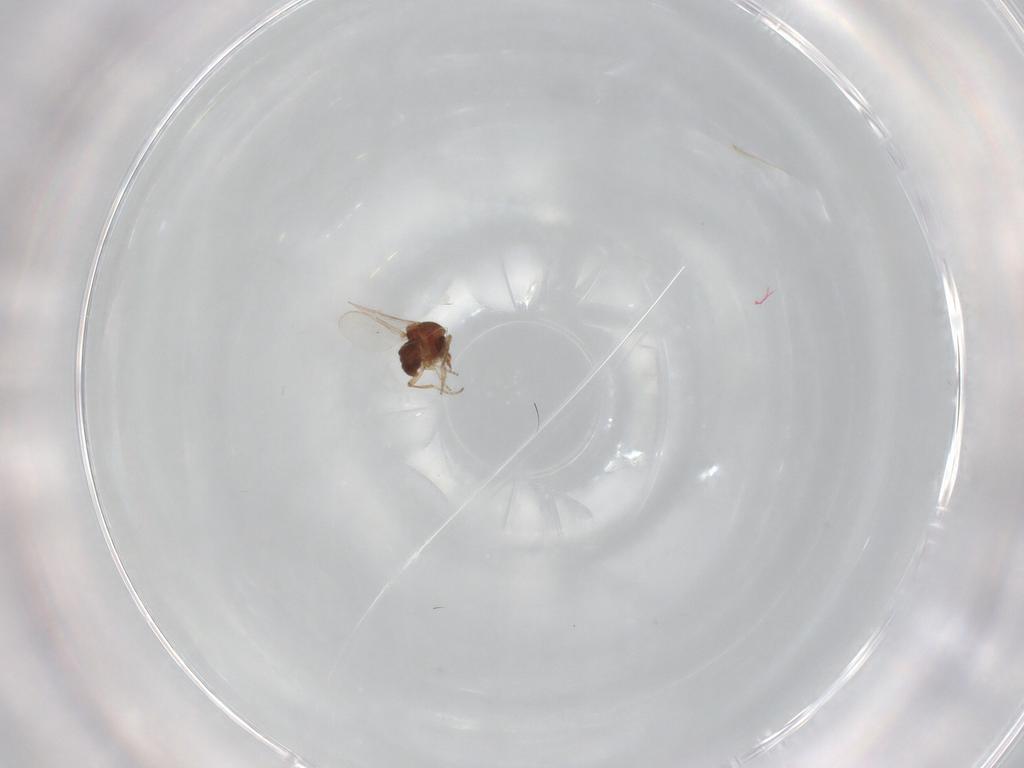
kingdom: Animalia
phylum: Arthropoda
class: Insecta
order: Diptera
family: Ceratopogonidae
